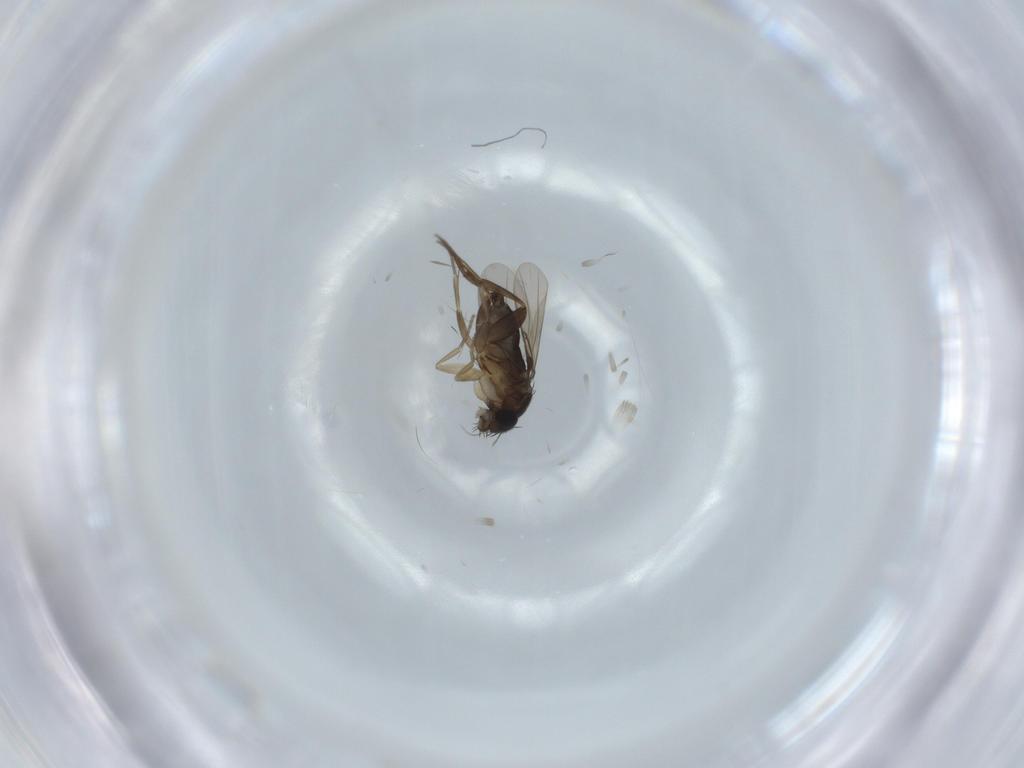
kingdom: Animalia
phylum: Arthropoda
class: Insecta
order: Diptera
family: Phoridae
